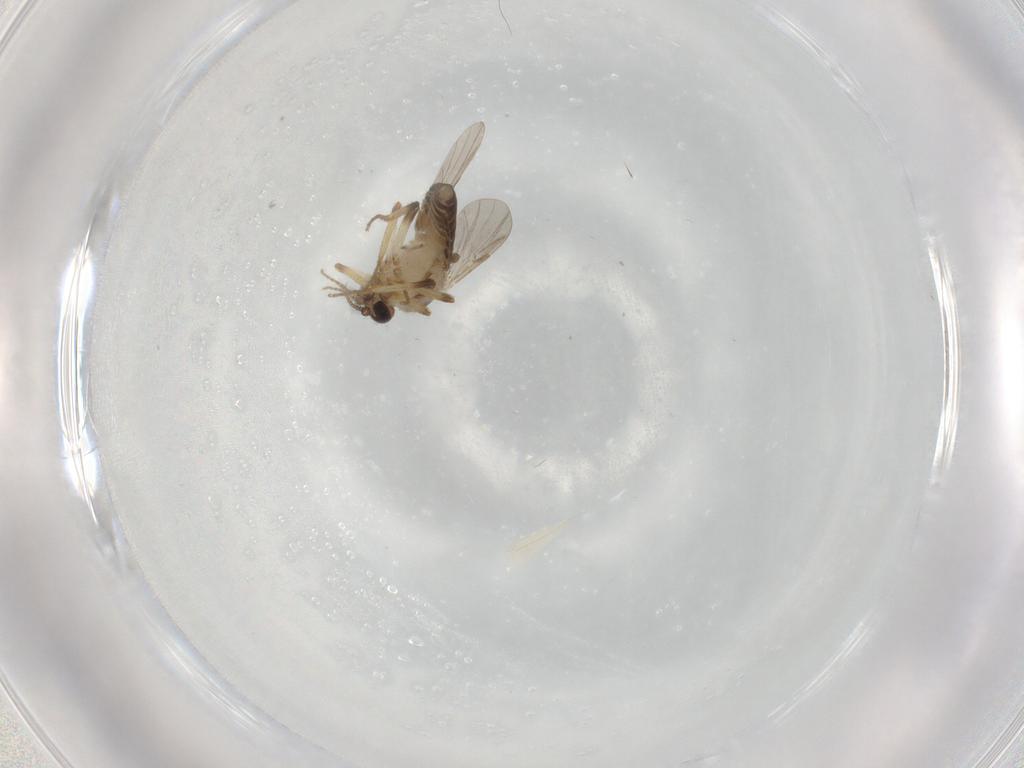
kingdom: Animalia
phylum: Arthropoda
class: Insecta
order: Diptera
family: Ceratopogonidae
